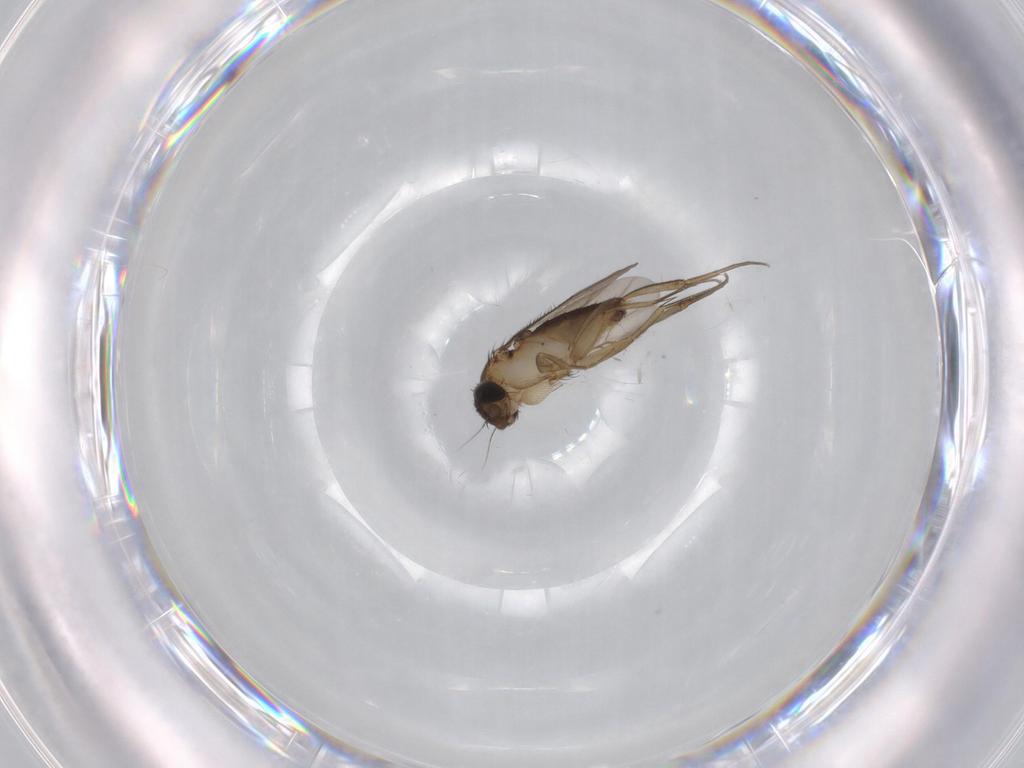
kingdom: Animalia
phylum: Arthropoda
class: Insecta
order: Diptera
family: Phoridae
